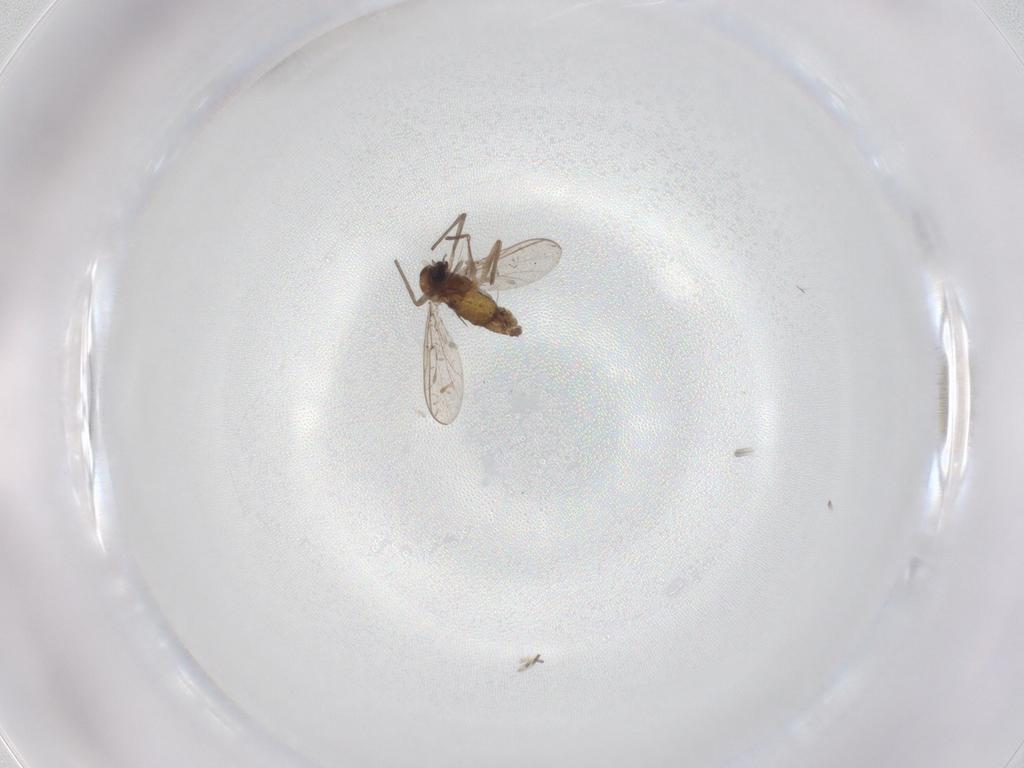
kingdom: Animalia
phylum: Arthropoda
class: Insecta
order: Diptera
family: Chironomidae
